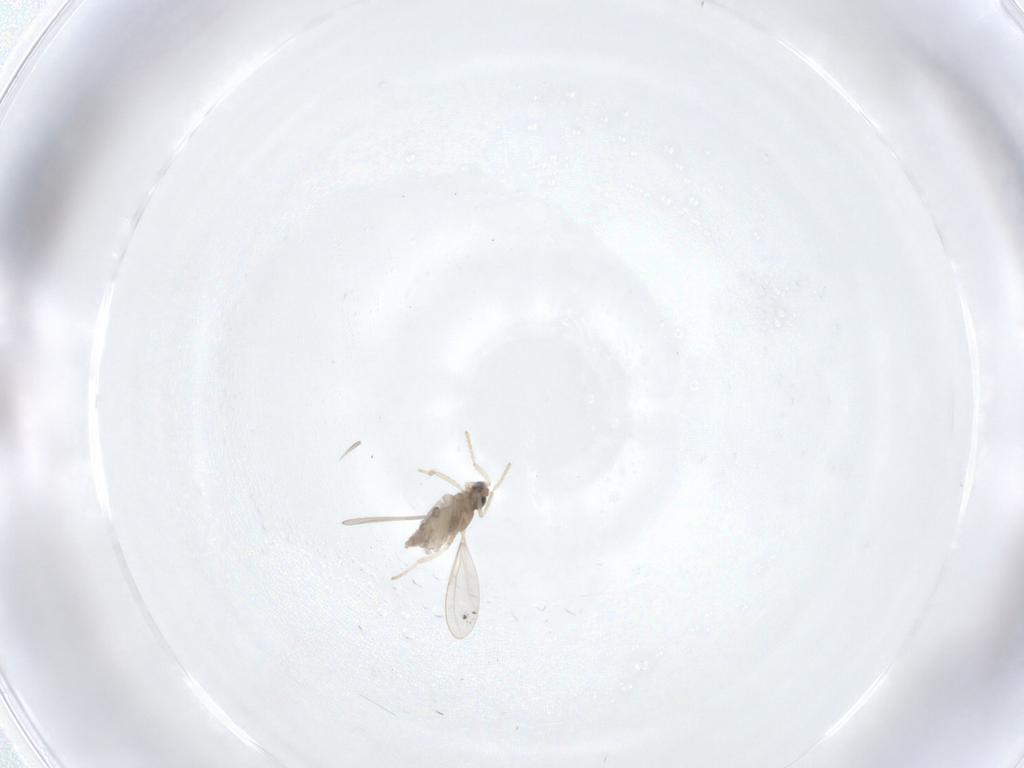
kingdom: Animalia
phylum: Arthropoda
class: Insecta
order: Diptera
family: Cecidomyiidae
